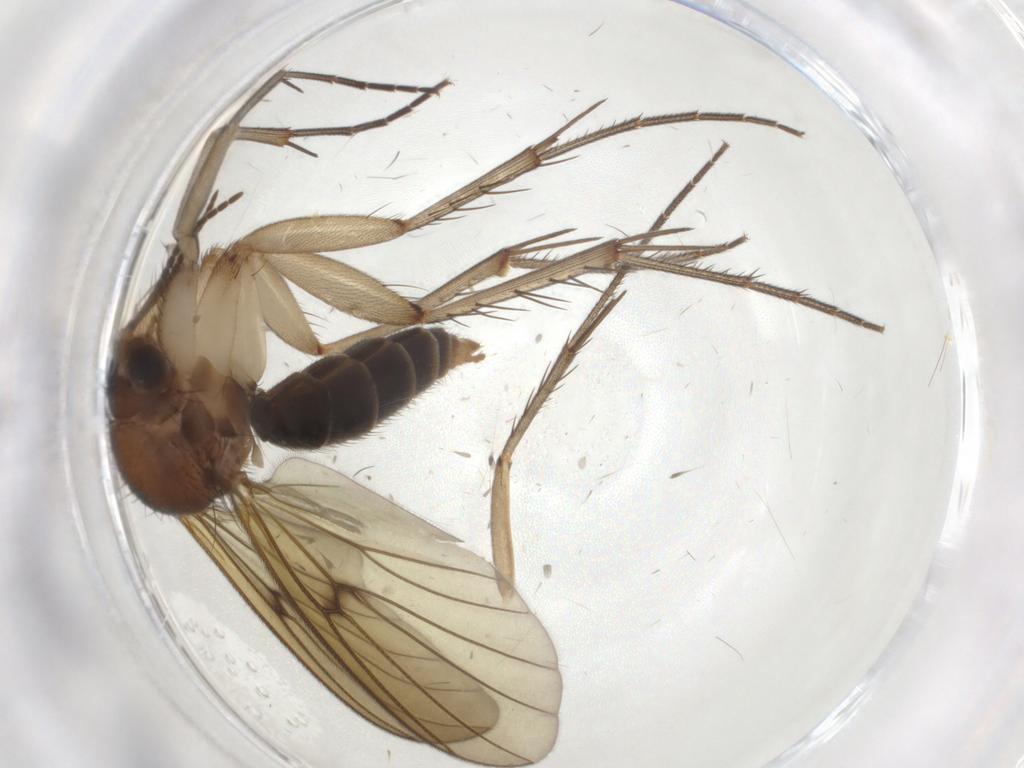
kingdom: Animalia
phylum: Arthropoda
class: Insecta
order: Diptera
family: Mycetophilidae
